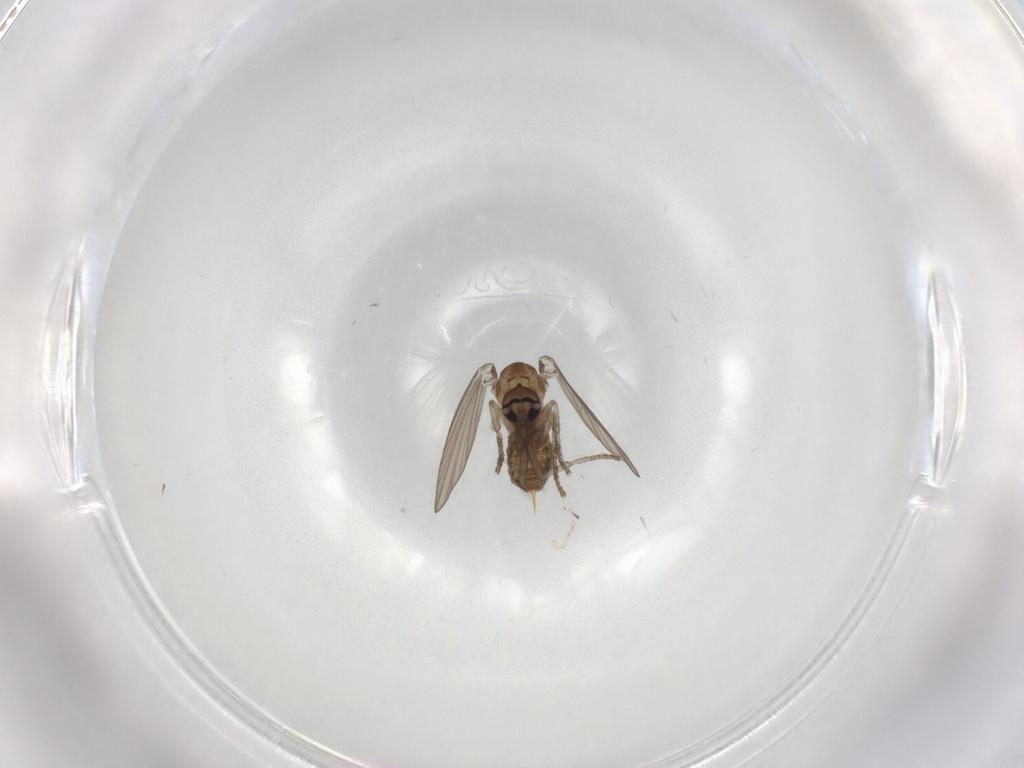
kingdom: Animalia
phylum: Arthropoda
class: Insecta
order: Diptera
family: Psychodidae
